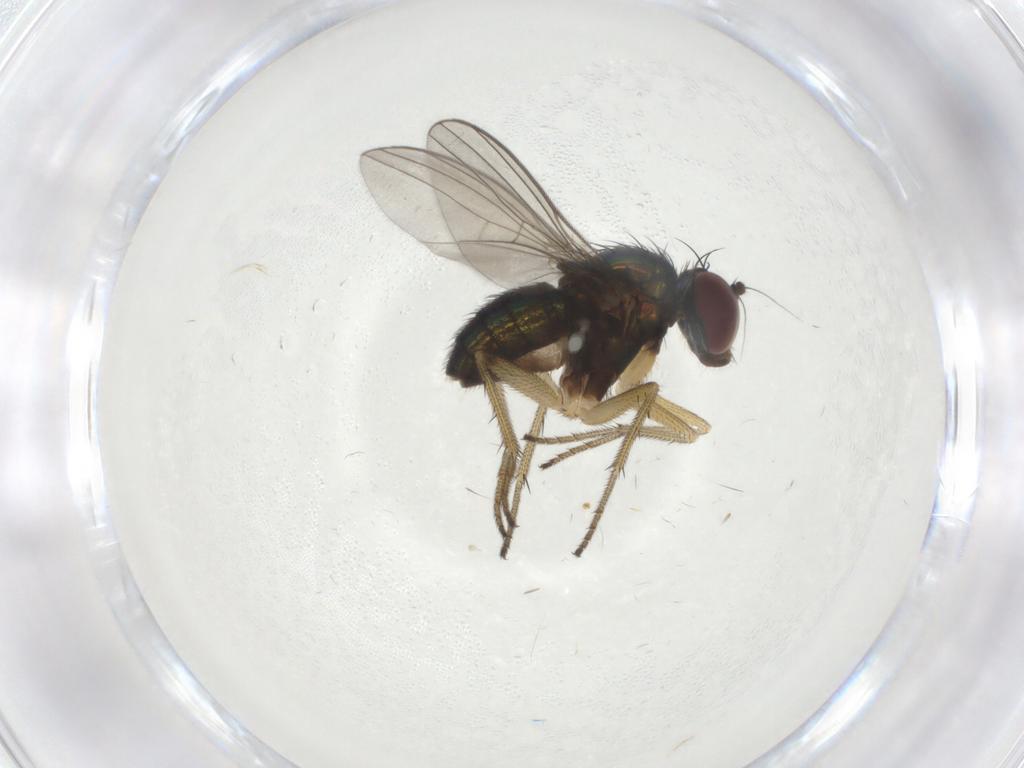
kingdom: Animalia
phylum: Arthropoda
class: Insecta
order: Diptera
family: Dolichopodidae
